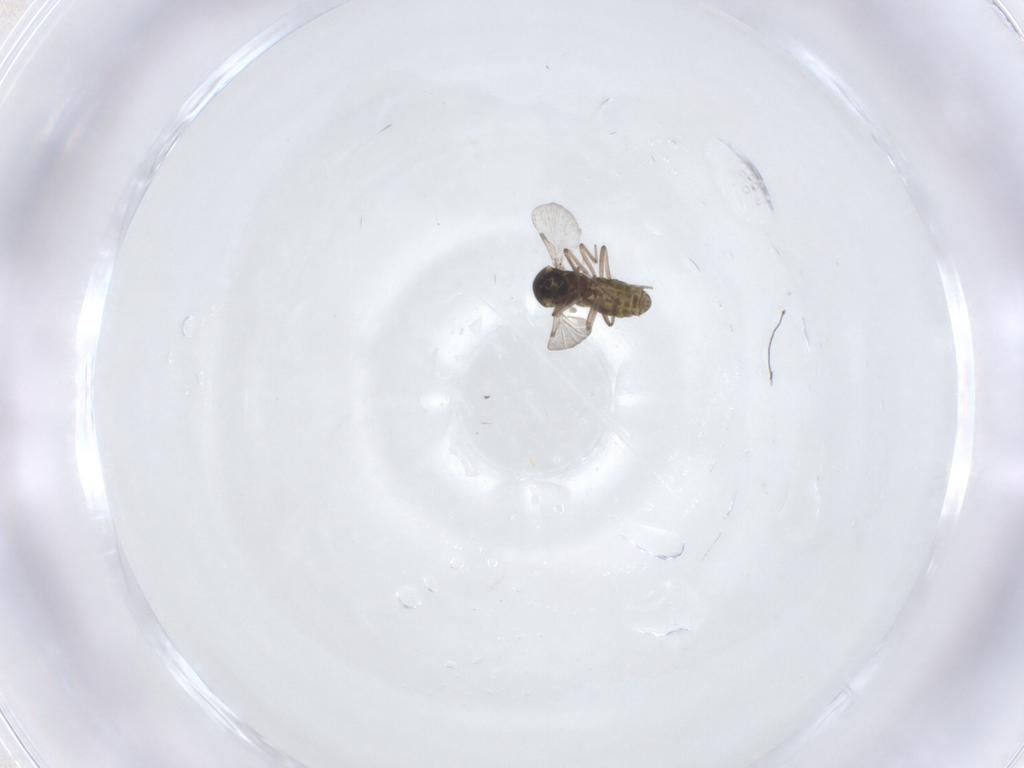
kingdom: Animalia
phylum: Arthropoda
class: Insecta
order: Diptera
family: Ceratopogonidae
